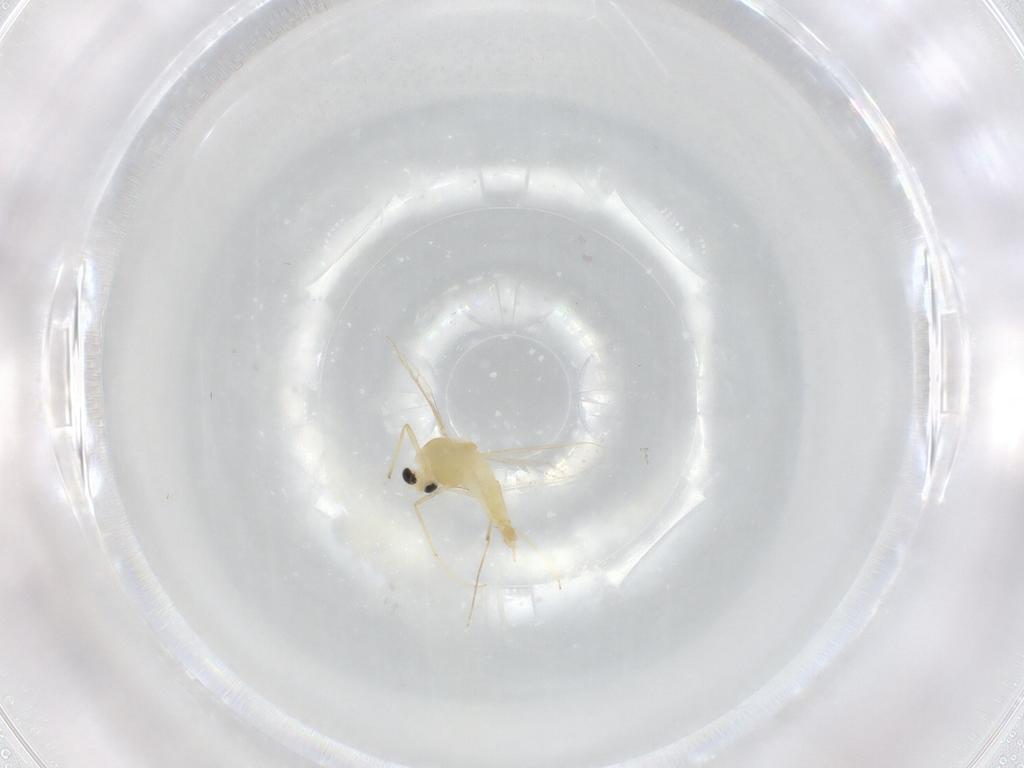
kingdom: Animalia
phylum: Arthropoda
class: Insecta
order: Diptera
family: Chironomidae
